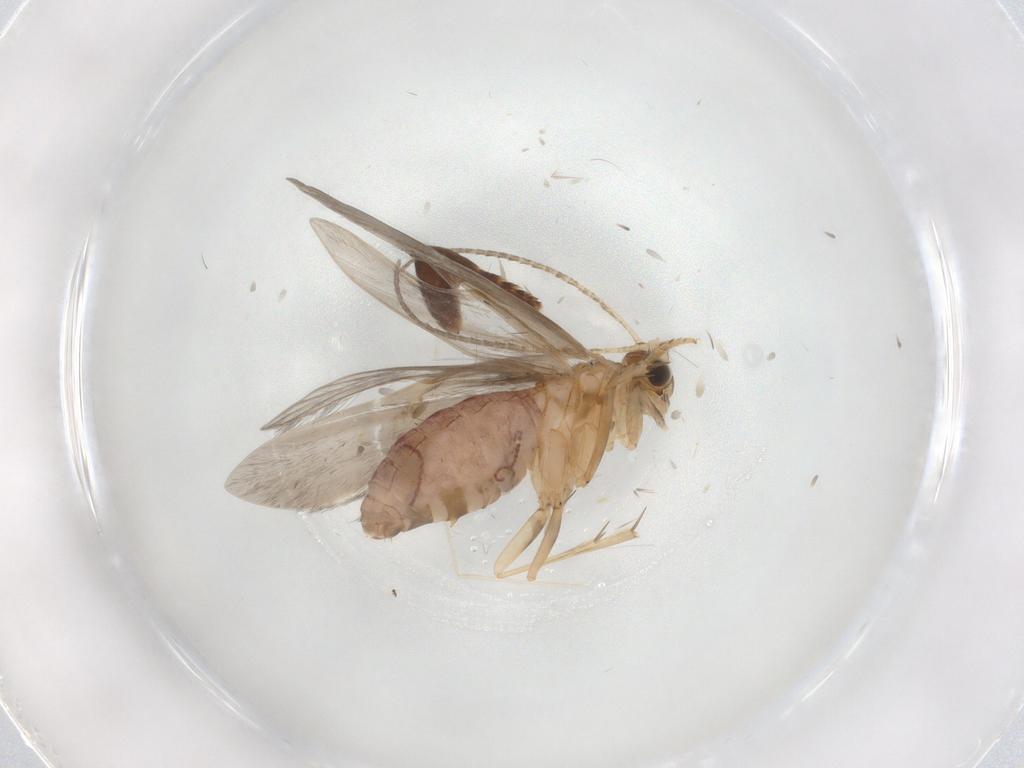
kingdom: Animalia
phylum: Arthropoda
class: Insecta
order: Trichoptera
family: Glossosomatidae
